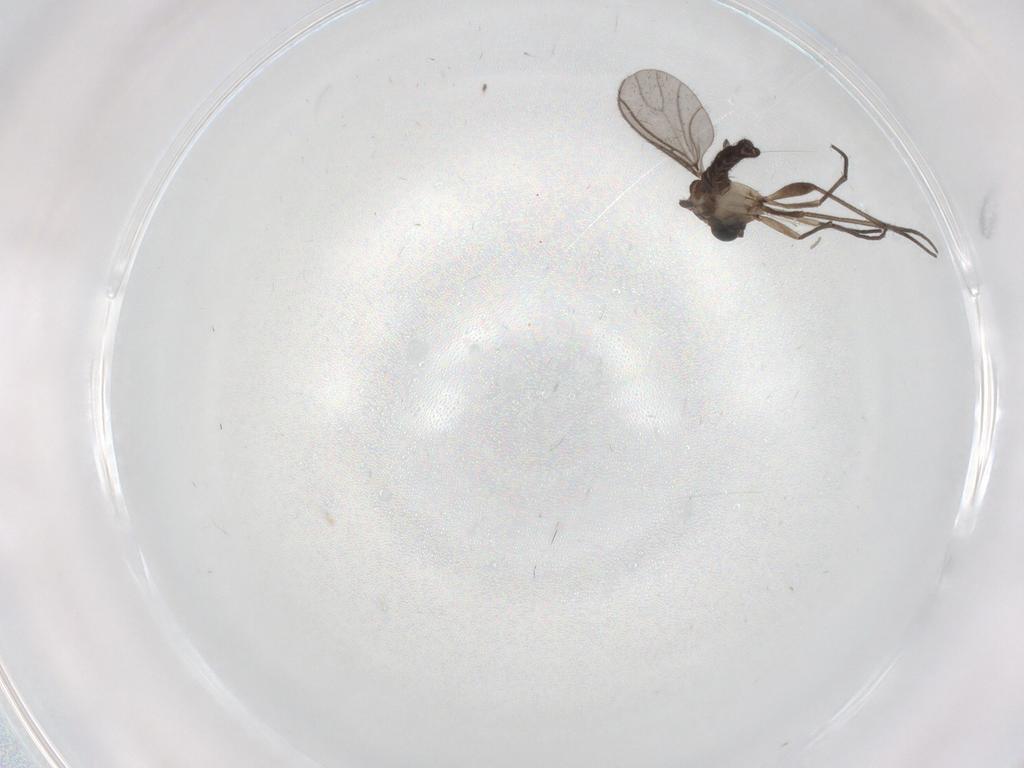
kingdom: Animalia
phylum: Arthropoda
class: Insecta
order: Diptera
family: Sciaridae
